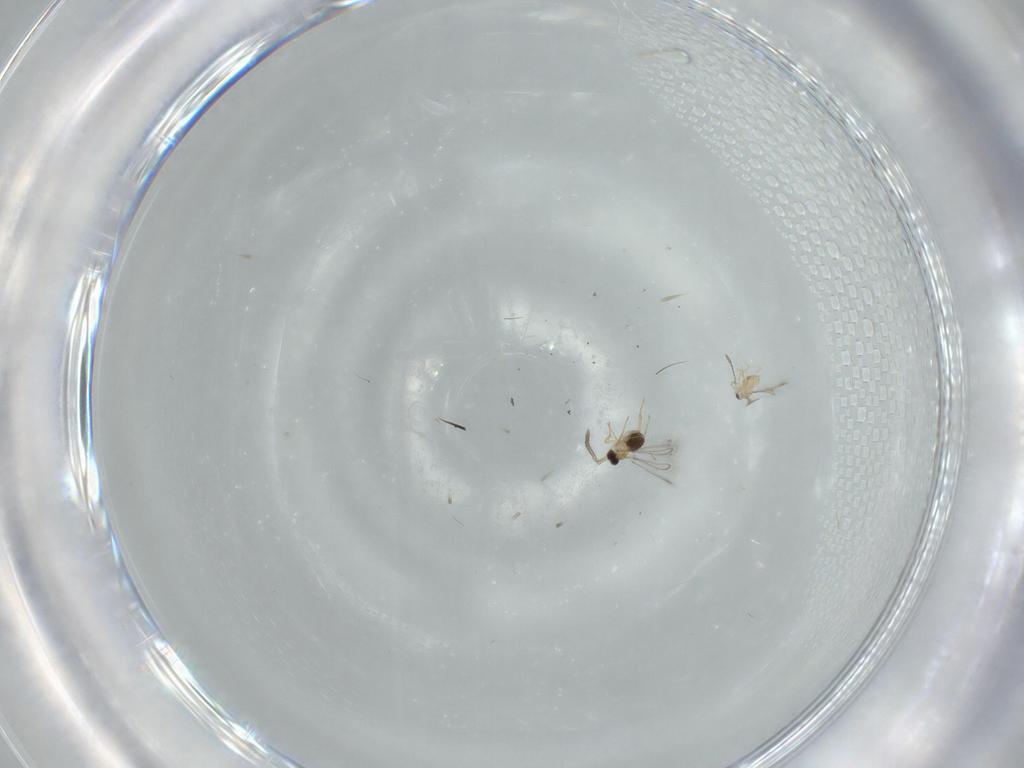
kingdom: Animalia
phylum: Arthropoda
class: Insecta
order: Hymenoptera
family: Mymaridae
